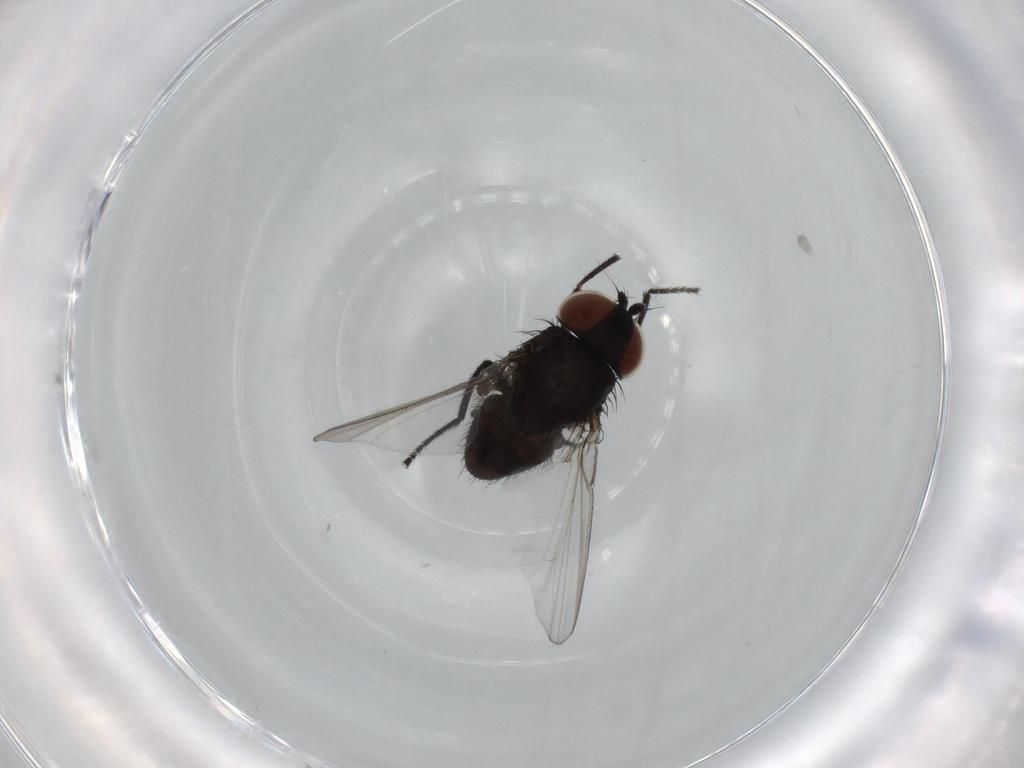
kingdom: Animalia
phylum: Arthropoda
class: Insecta
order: Diptera
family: Milichiidae
